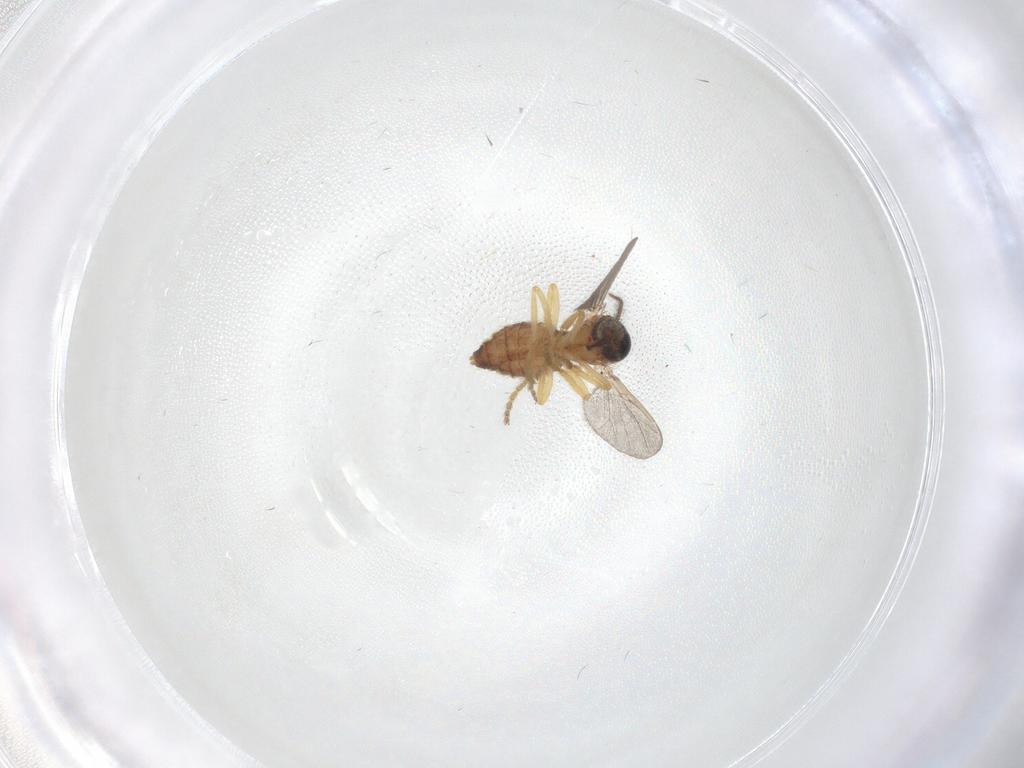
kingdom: Animalia
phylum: Arthropoda
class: Insecta
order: Diptera
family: Ceratopogonidae
